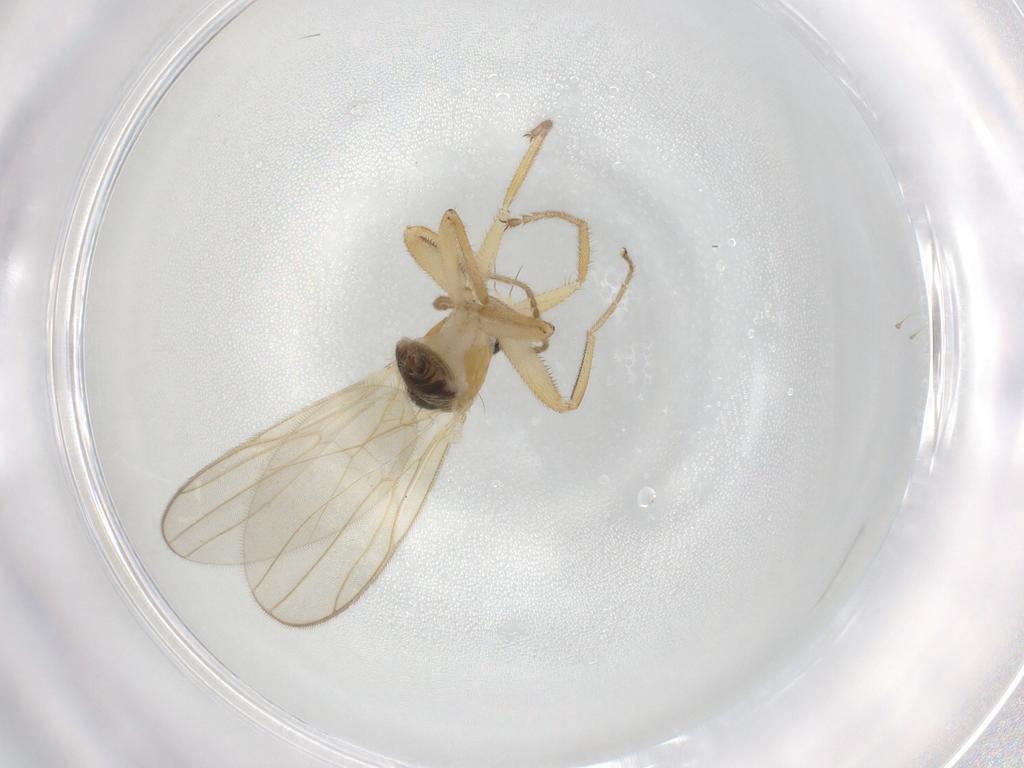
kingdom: Animalia
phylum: Arthropoda
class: Insecta
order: Diptera
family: Hybotidae
